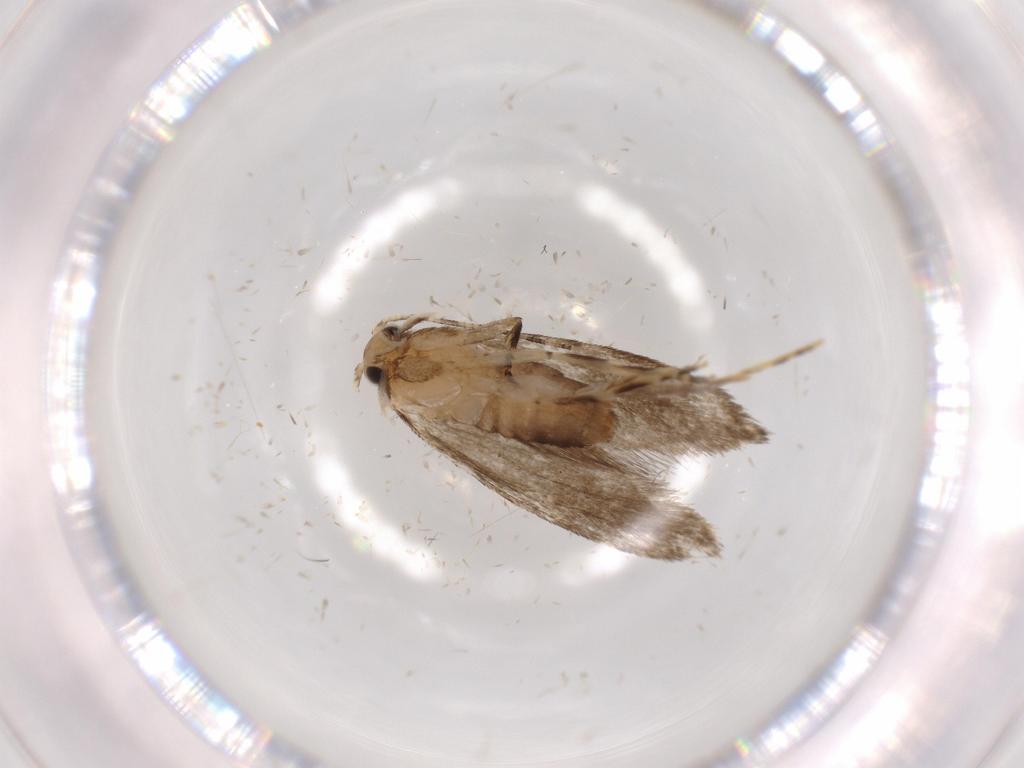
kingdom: Animalia
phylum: Arthropoda
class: Insecta
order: Lepidoptera
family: Tineidae
